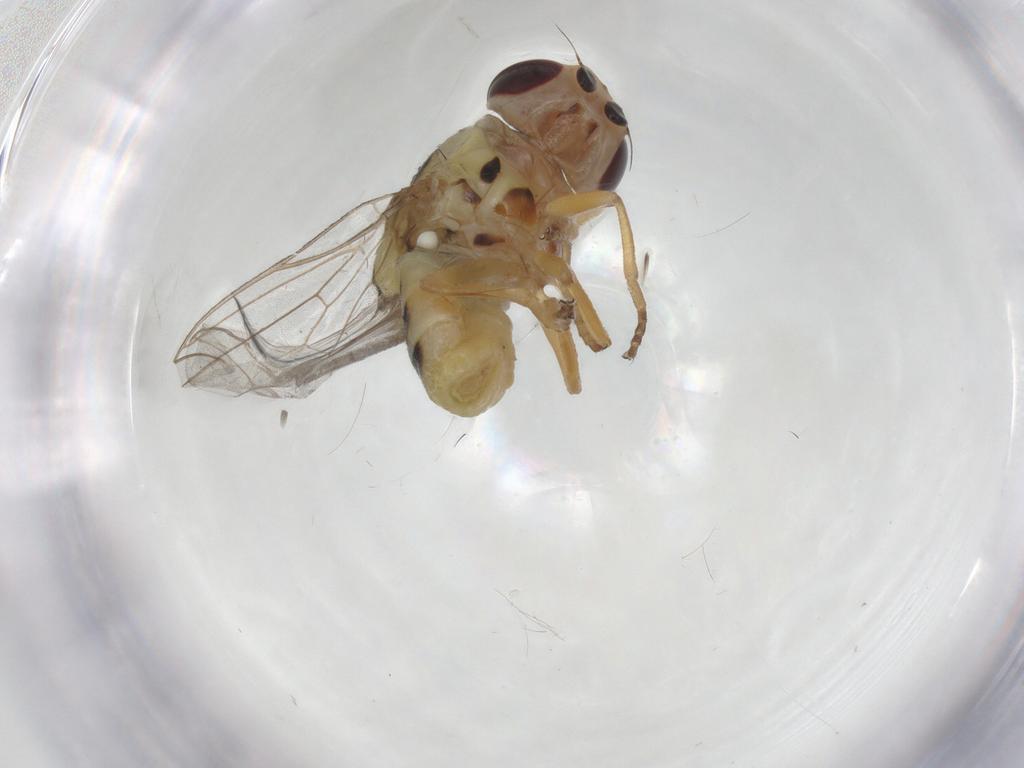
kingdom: Animalia
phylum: Arthropoda
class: Insecta
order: Diptera
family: Chloropidae
